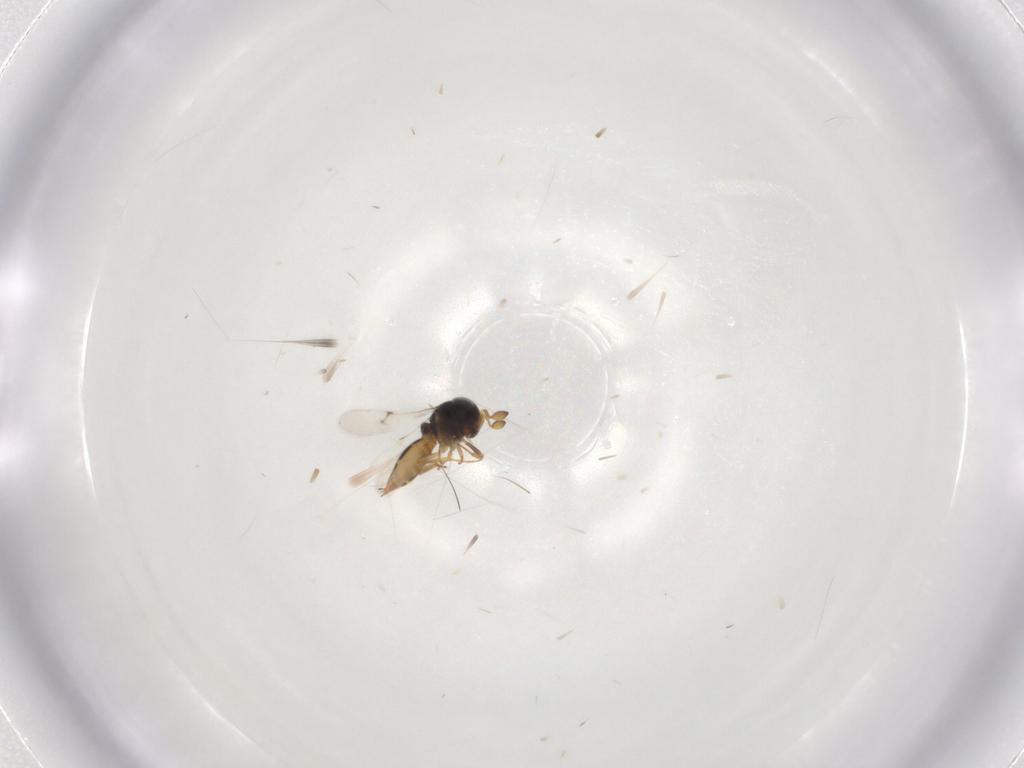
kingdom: Animalia
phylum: Arthropoda
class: Insecta
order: Hymenoptera
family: Scelionidae
